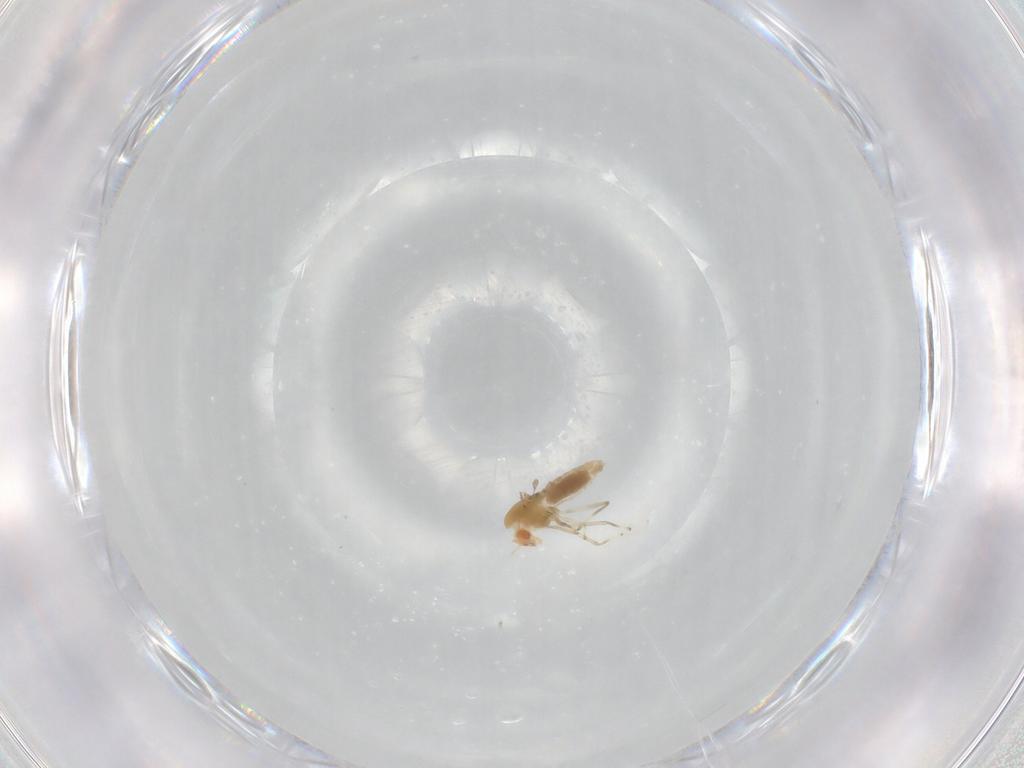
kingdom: Animalia
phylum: Arthropoda
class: Insecta
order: Diptera
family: Chironomidae
